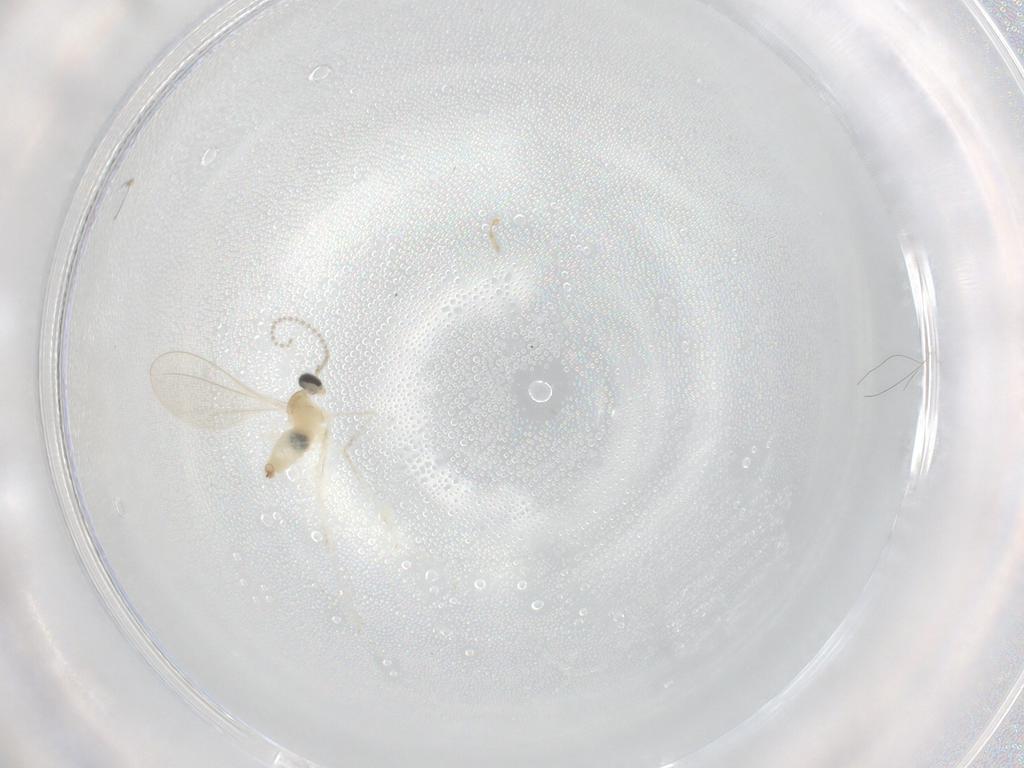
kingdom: Animalia
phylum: Arthropoda
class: Insecta
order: Diptera
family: Cecidomyiidae
